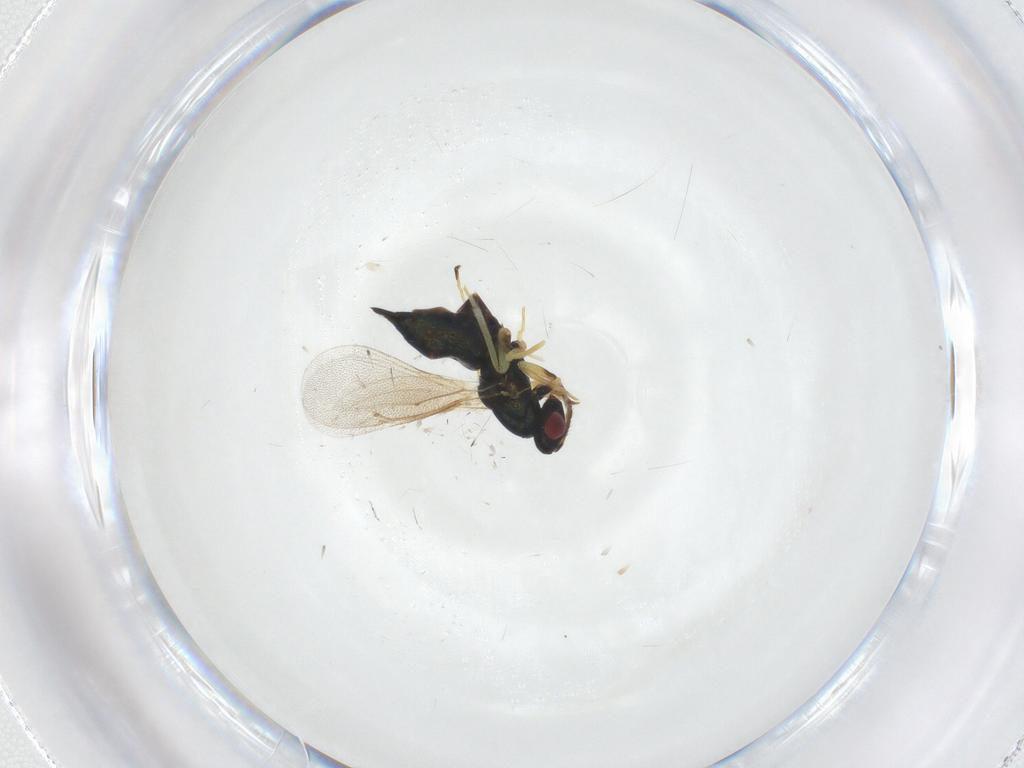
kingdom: Animalia
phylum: Arthropoda
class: Insecta
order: Hymenoptera
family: Eulophidae
